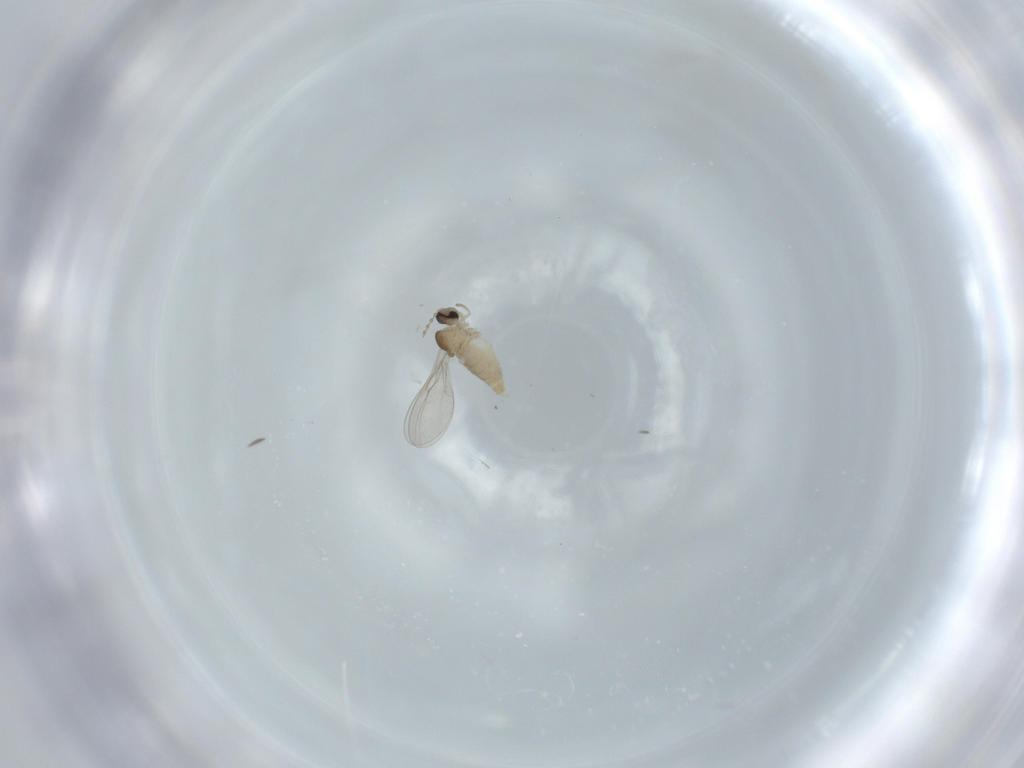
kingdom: Animalia
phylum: Arthropoda
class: Insecta
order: Diptera
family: Cecidomyiidae
